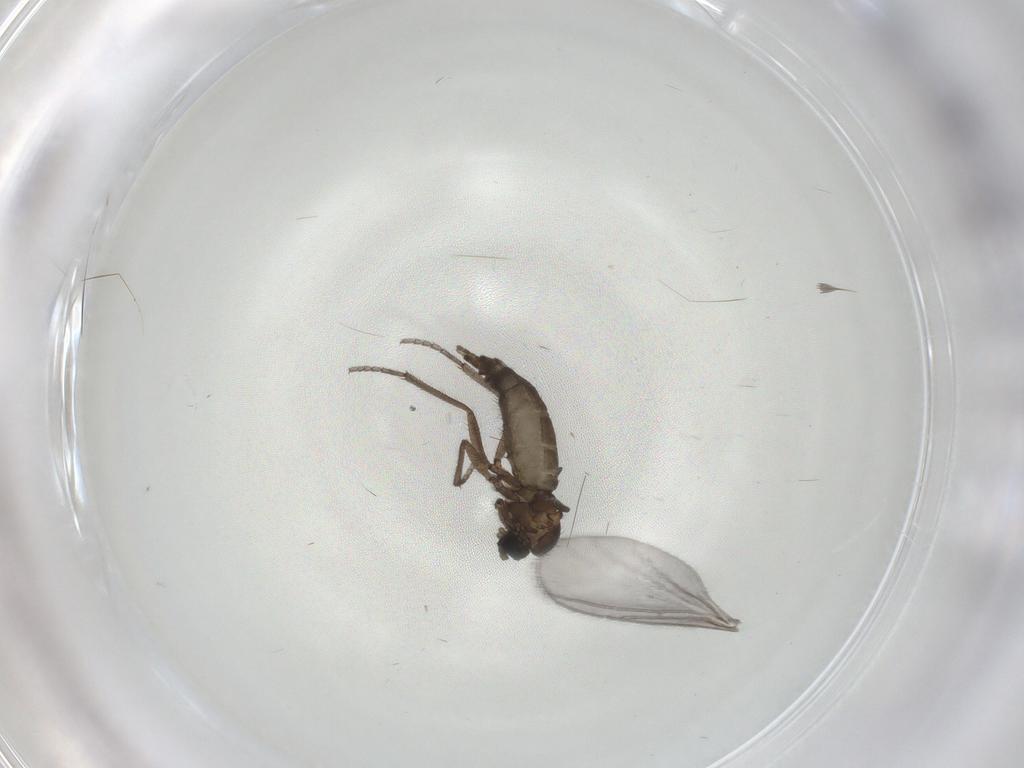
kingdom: Animalia
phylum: Arthropoda
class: Insecta
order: Diptera
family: Sciaridae
